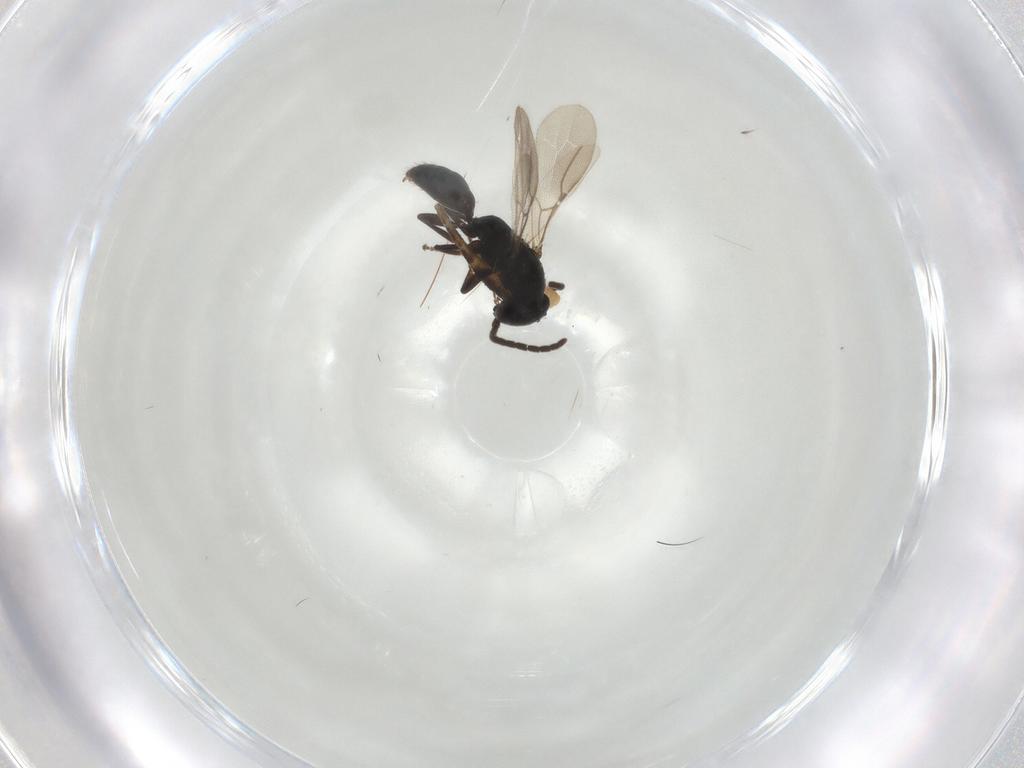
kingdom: Animalia
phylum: Arthropoda
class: Insecta
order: Hymenoptera
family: Bethylidae
